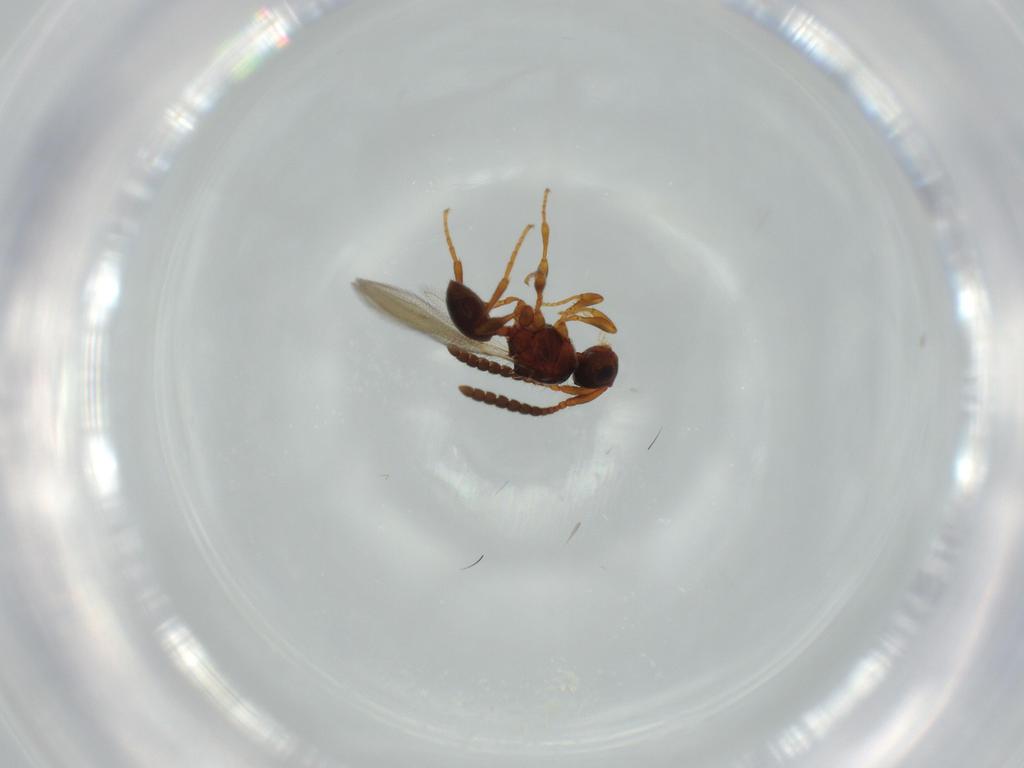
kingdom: Animalia
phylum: Arthropoda
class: Insecta
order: Hymenoptera
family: Diapriidae
